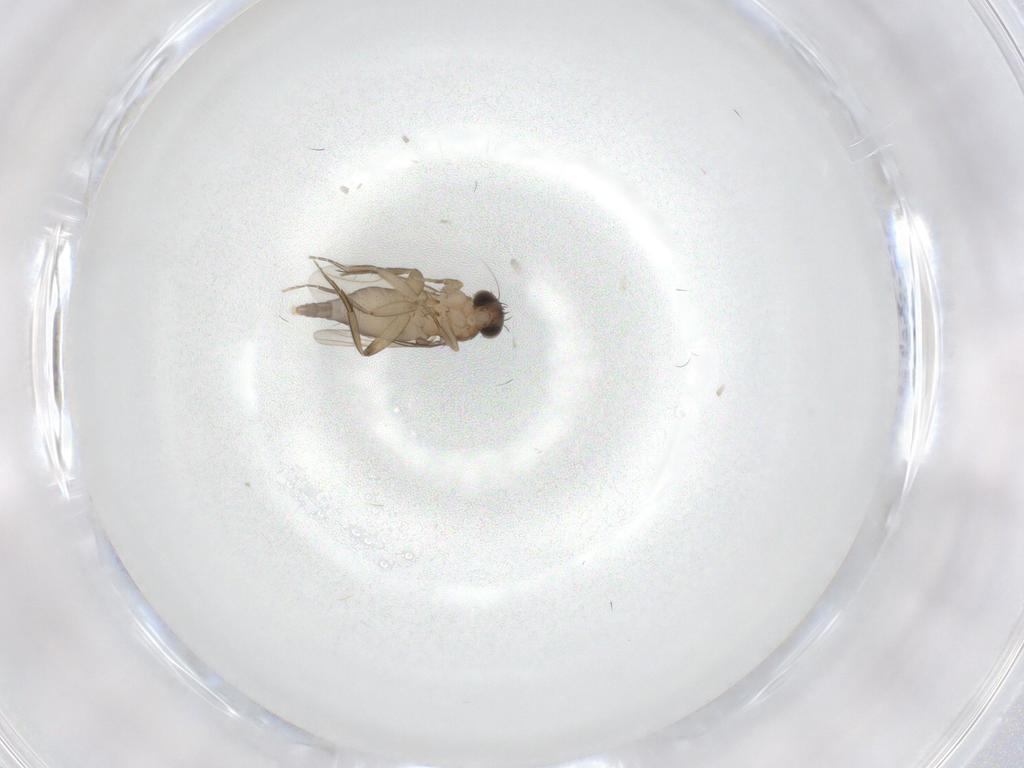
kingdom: Animalia
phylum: Arthropoda
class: Insecta
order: Diptera
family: Phoridae
